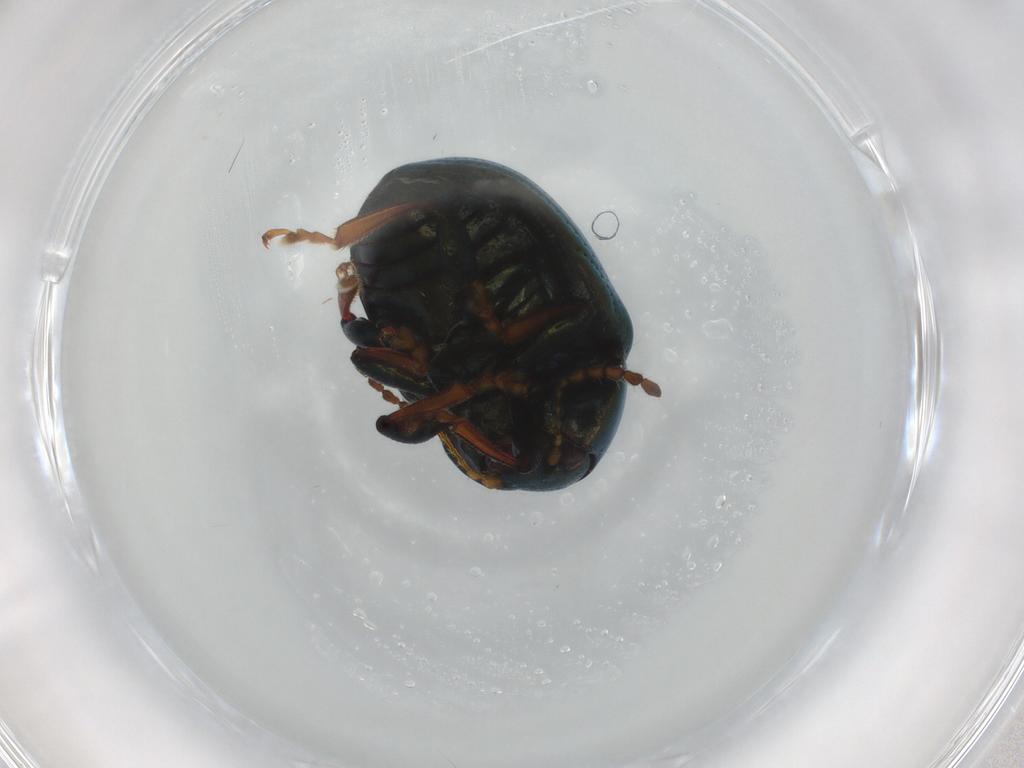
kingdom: Animalia
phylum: Arthropoda
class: Insecta
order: Coleoptera
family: Chrysomelidae
